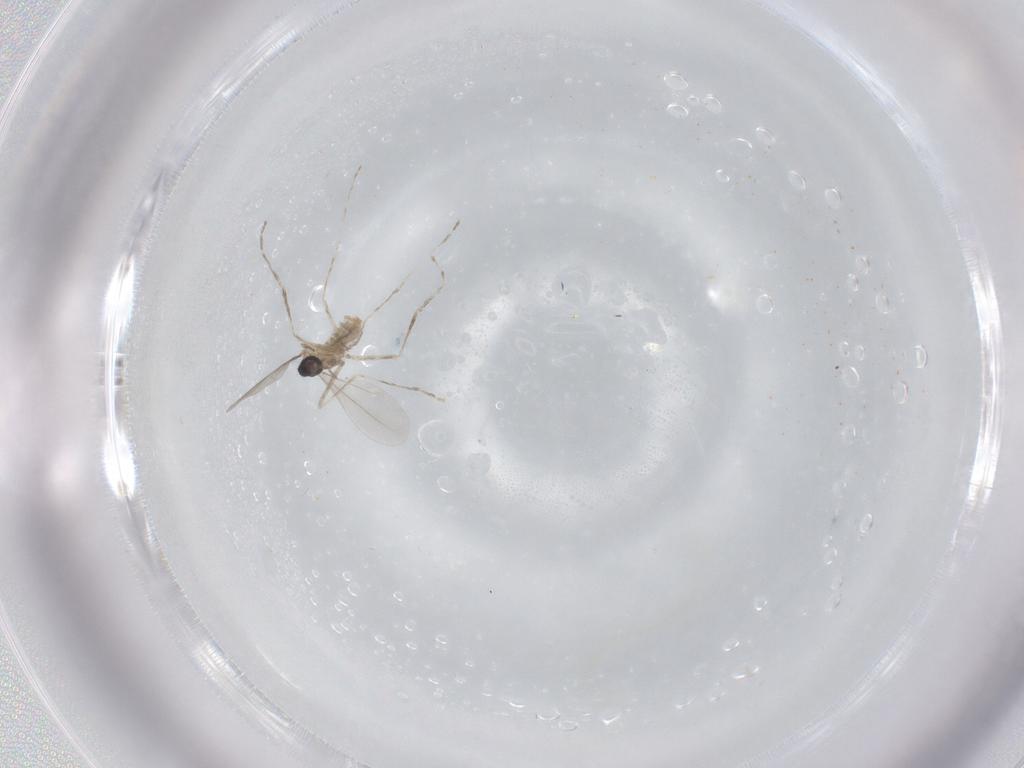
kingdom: Animalia
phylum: Arthropoda
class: Insecta
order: Diptera
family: Cecidomyiidae
